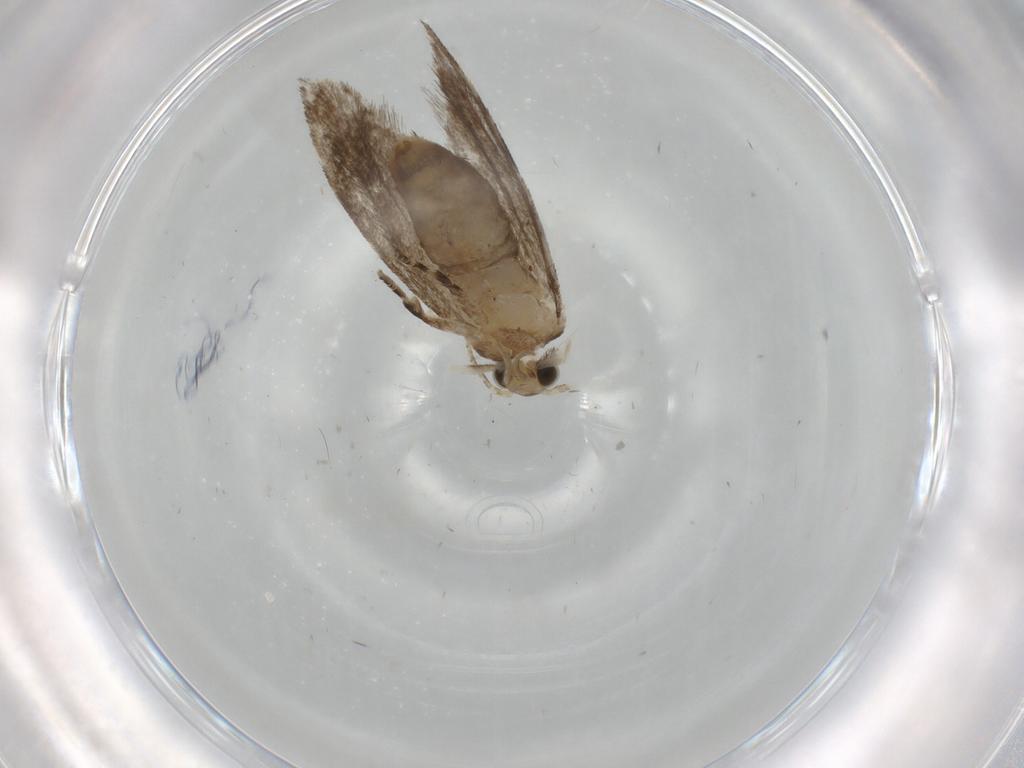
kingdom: Animalia
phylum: Arthropoda
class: Insecta
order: Lepidoptera
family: Tineidae
